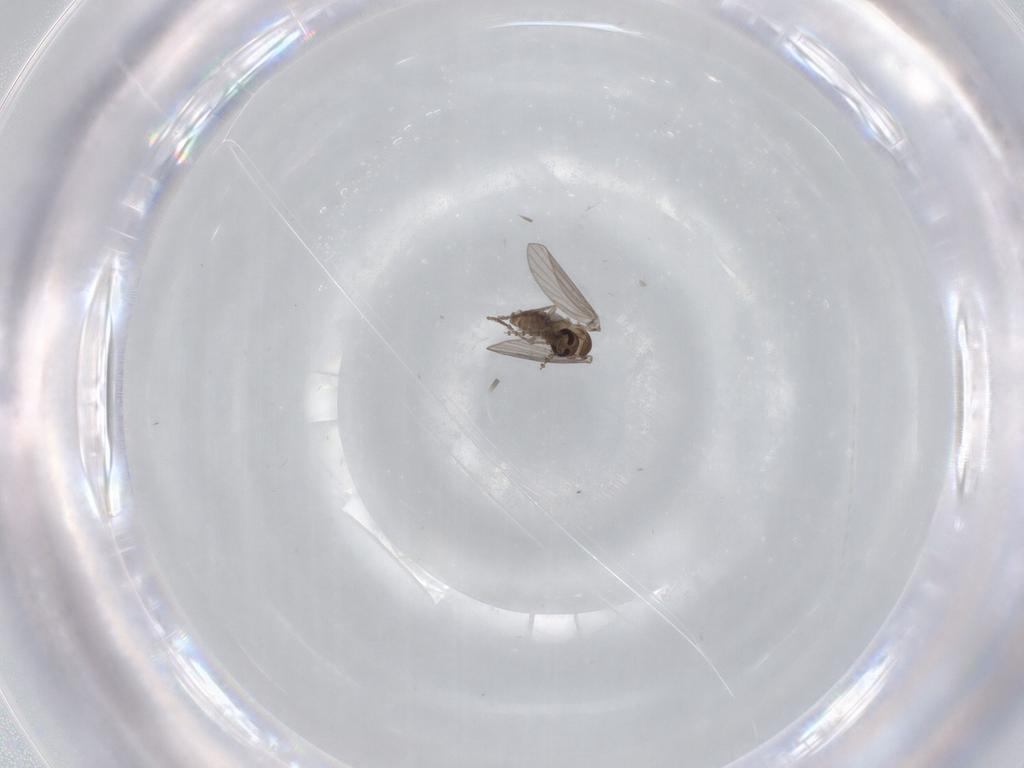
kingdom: Animalia
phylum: Arthropoda
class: Insecta
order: Diptera
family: Psychodidae
